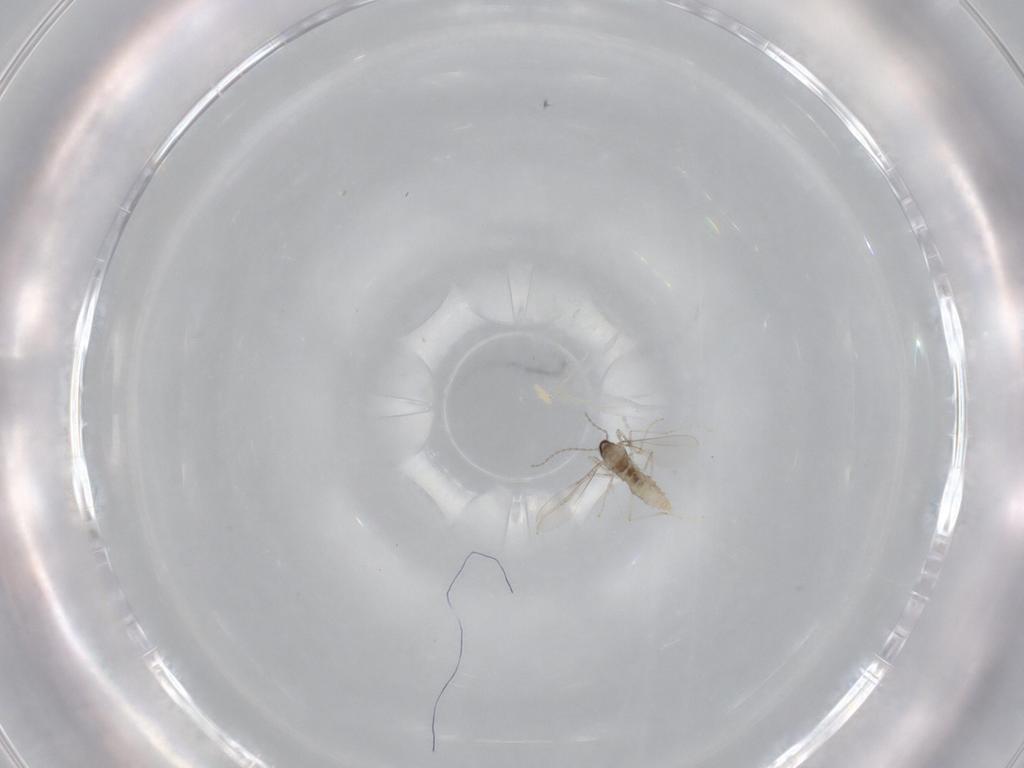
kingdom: Animalia
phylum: Arthropoda
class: Insecta
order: Diptera
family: Cecidomyiidae
